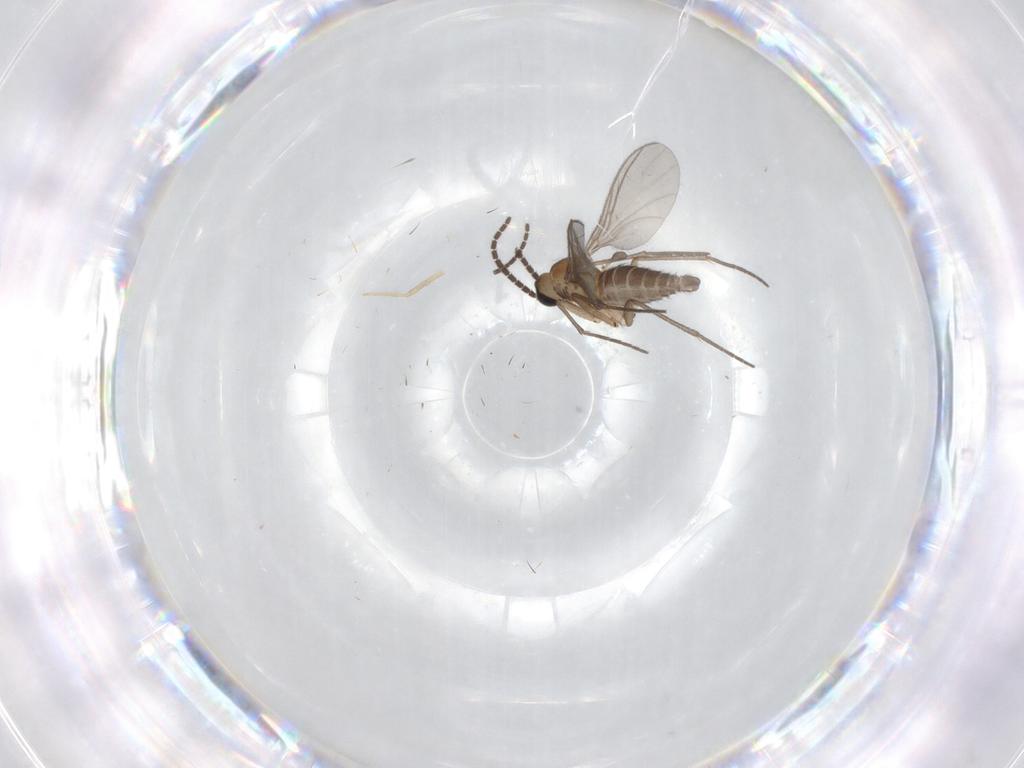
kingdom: Animalia
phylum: Arthropoda
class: Insecta
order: Diptera
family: Sciaridae
